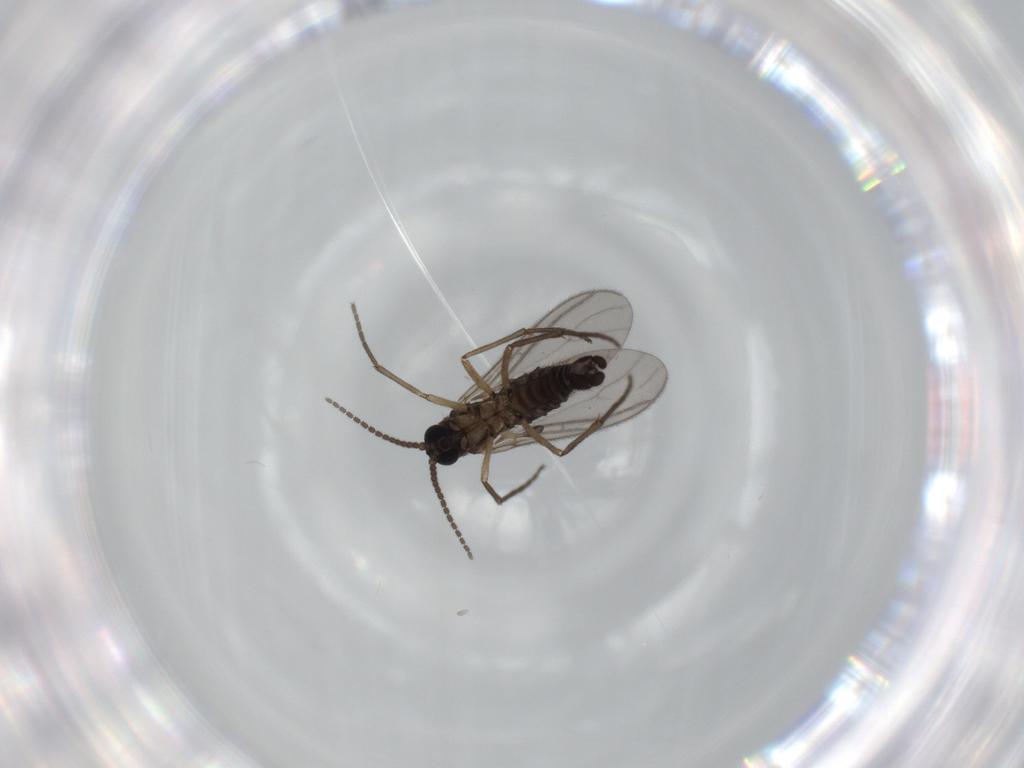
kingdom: Animalia
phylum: Arthropoda
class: Insecta
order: Diptera
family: Sciaridae
